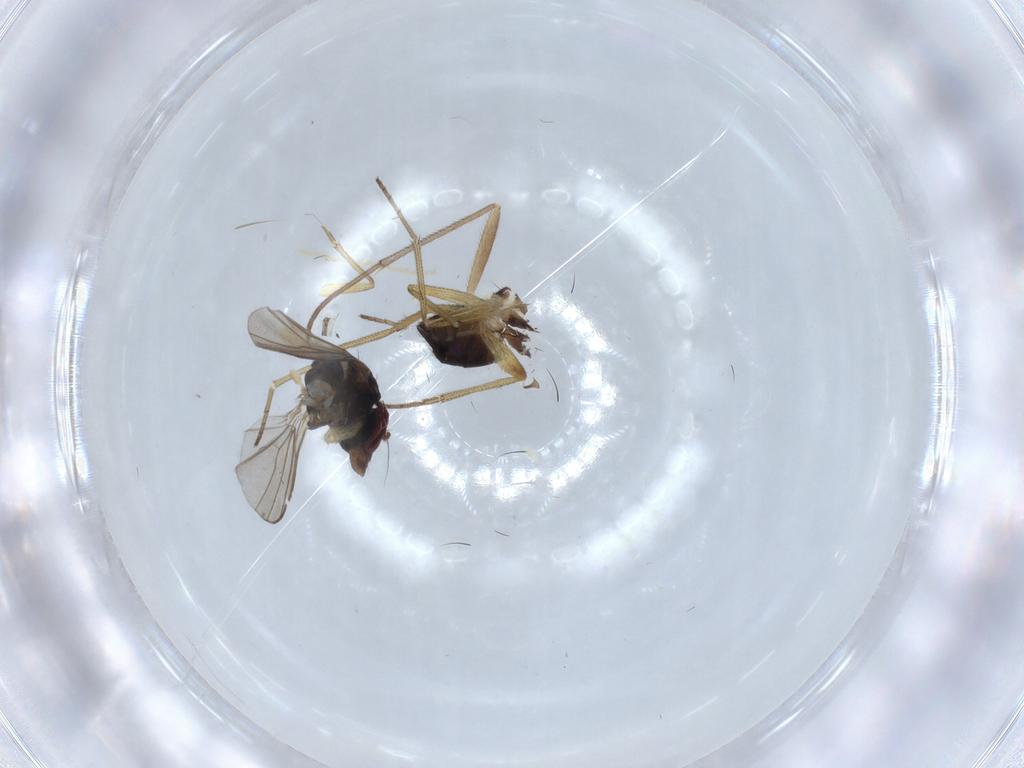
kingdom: Animalia
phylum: Arthropoda
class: Insecta
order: Diptera
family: Dolichopodidae
